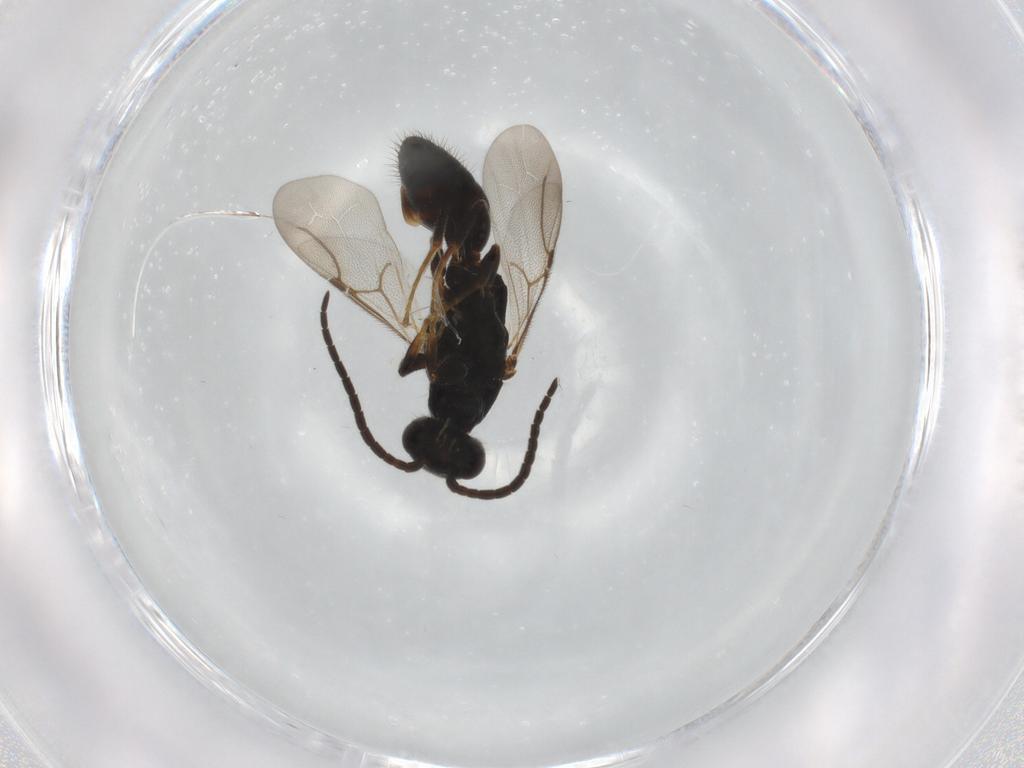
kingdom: Animalia
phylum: Arthropoda
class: Insecta
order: Hymenoptera
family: Bethylidae
